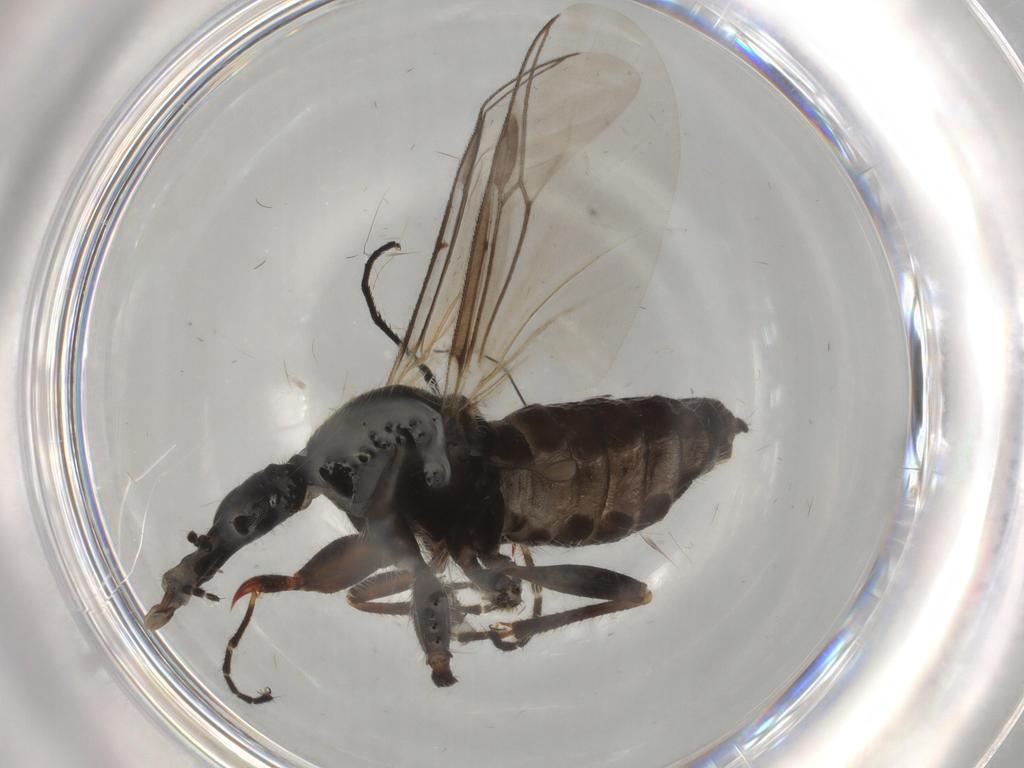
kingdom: Animalia
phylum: Arthropoda
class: Insecta
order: Diptera
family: Bibionidae
